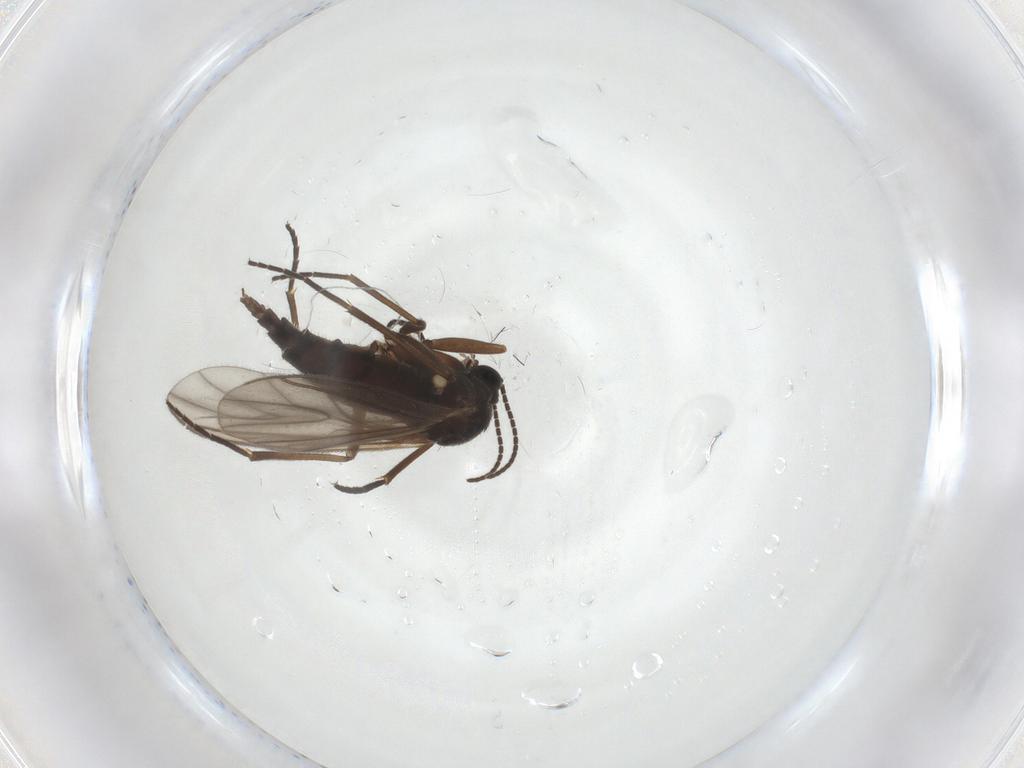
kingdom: Animalia
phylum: Arthropoda
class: Insecta
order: Diptera
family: Sciaridae
